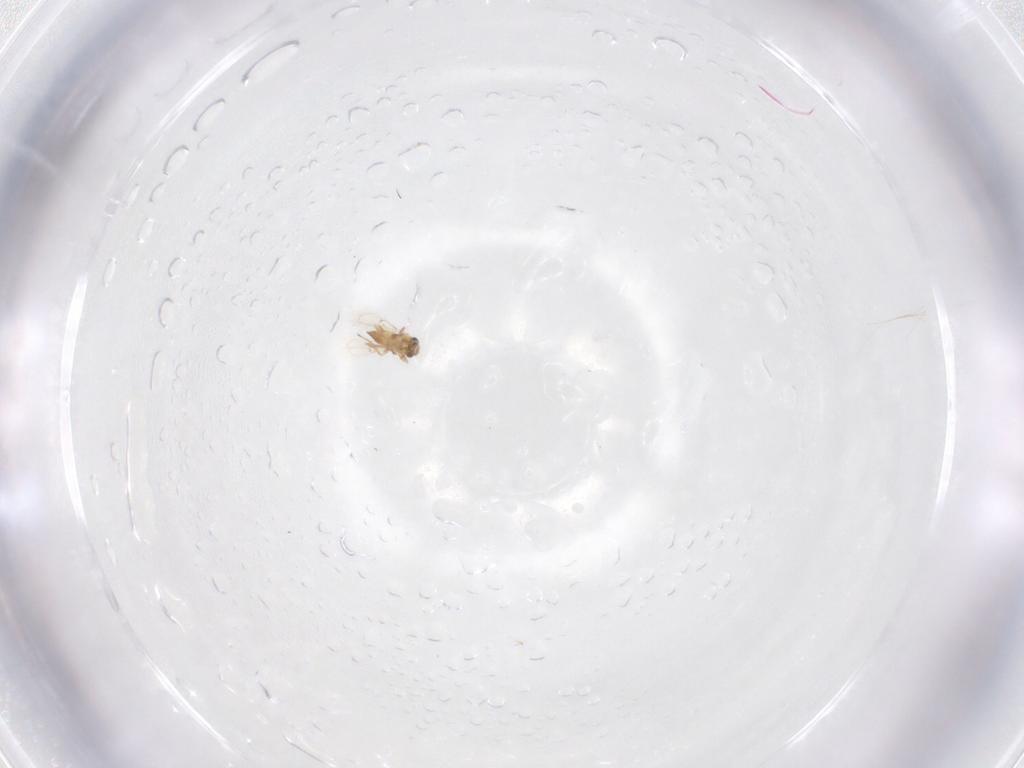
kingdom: Animalia
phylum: Arthropoda
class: Insecta
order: Hymenoptera
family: Trichogrammatidae
